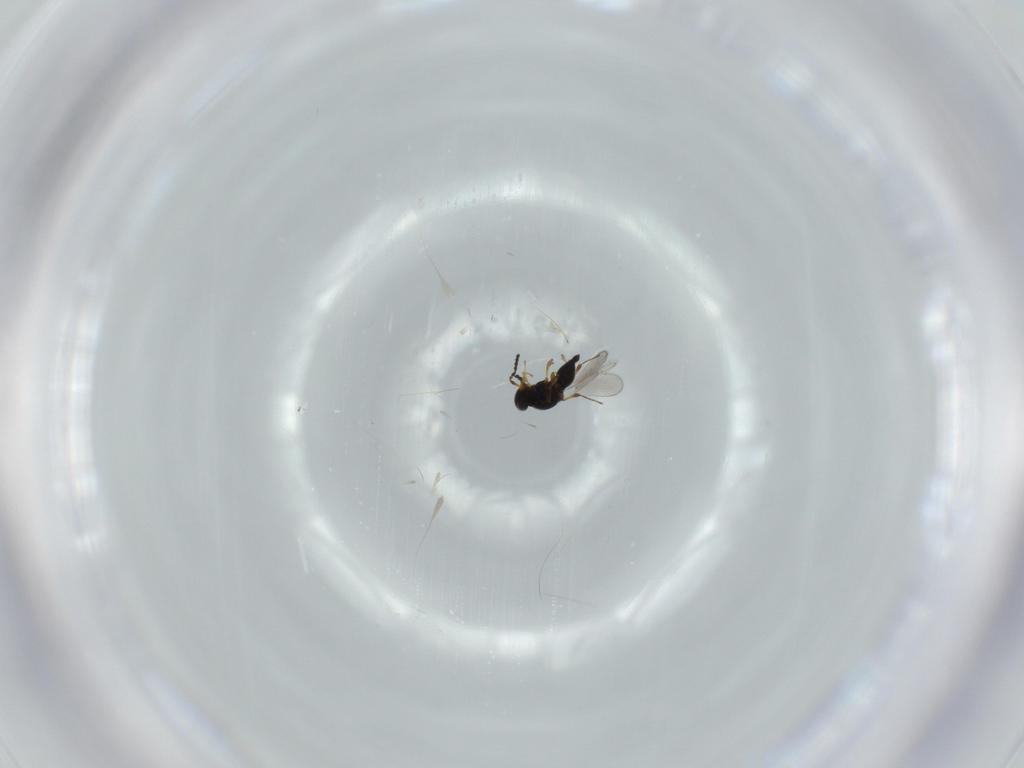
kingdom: Animalia
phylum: Arthropoda
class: Insecta
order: Hymenoptera
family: Platygastridae
